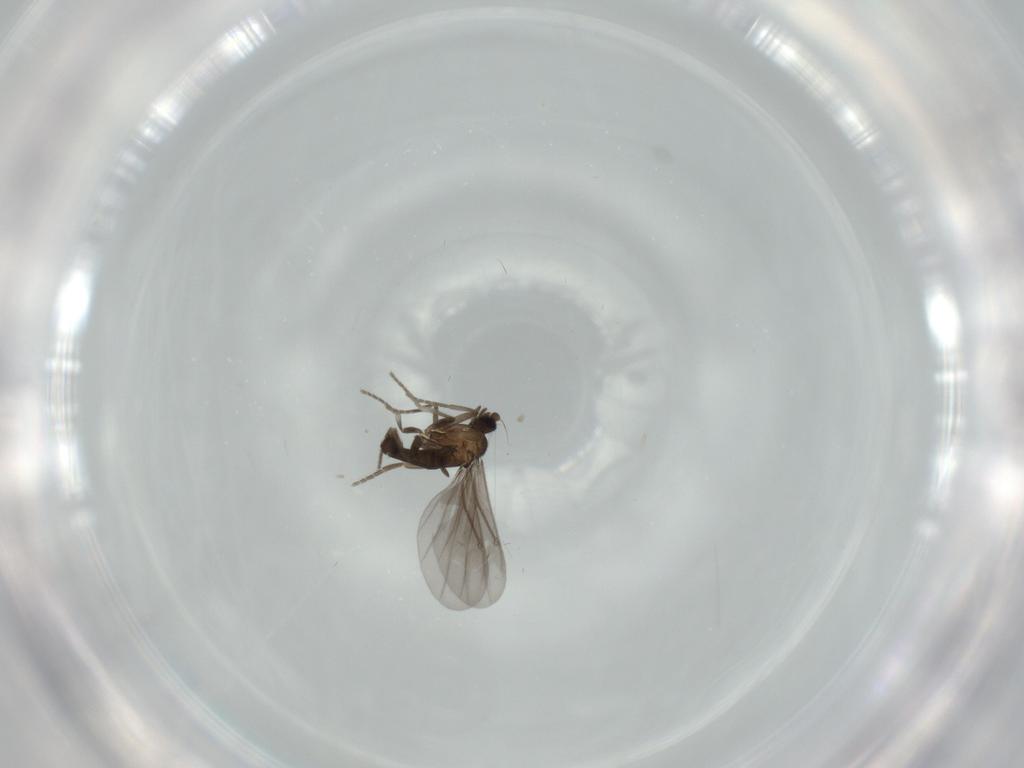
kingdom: Animalia
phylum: Arthropoda
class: Insecta
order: Diptera
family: Phoridae
